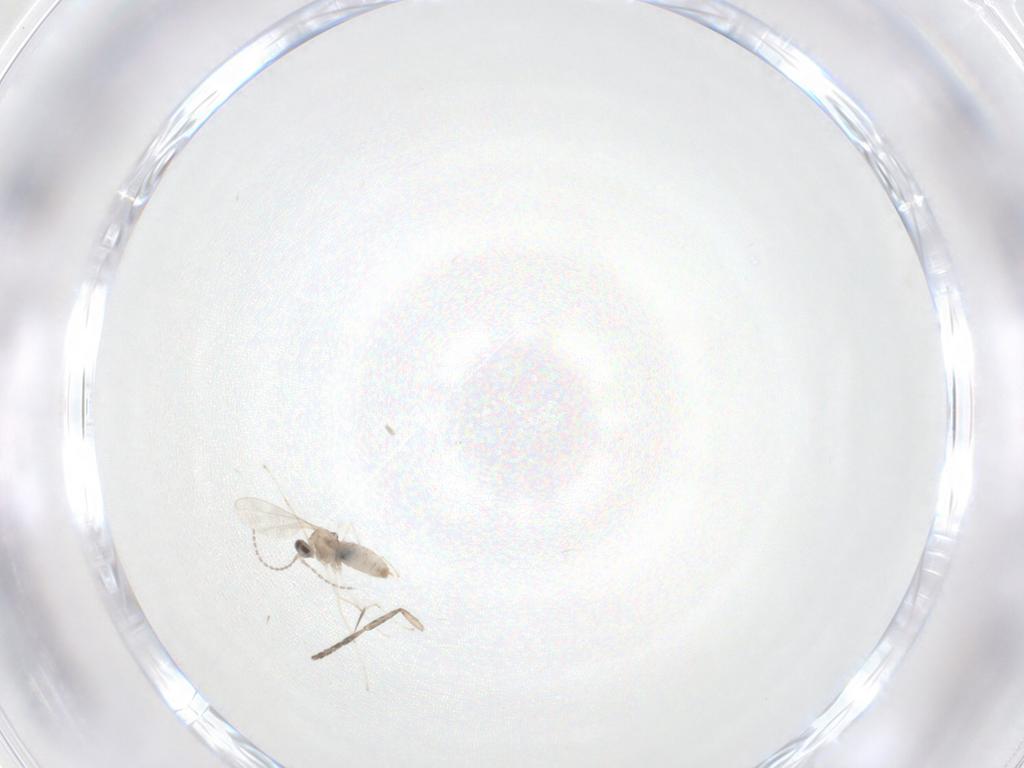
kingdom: Animalia
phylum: Arthropoda
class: Insecta
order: Diptera
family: Cecidomyiidae
